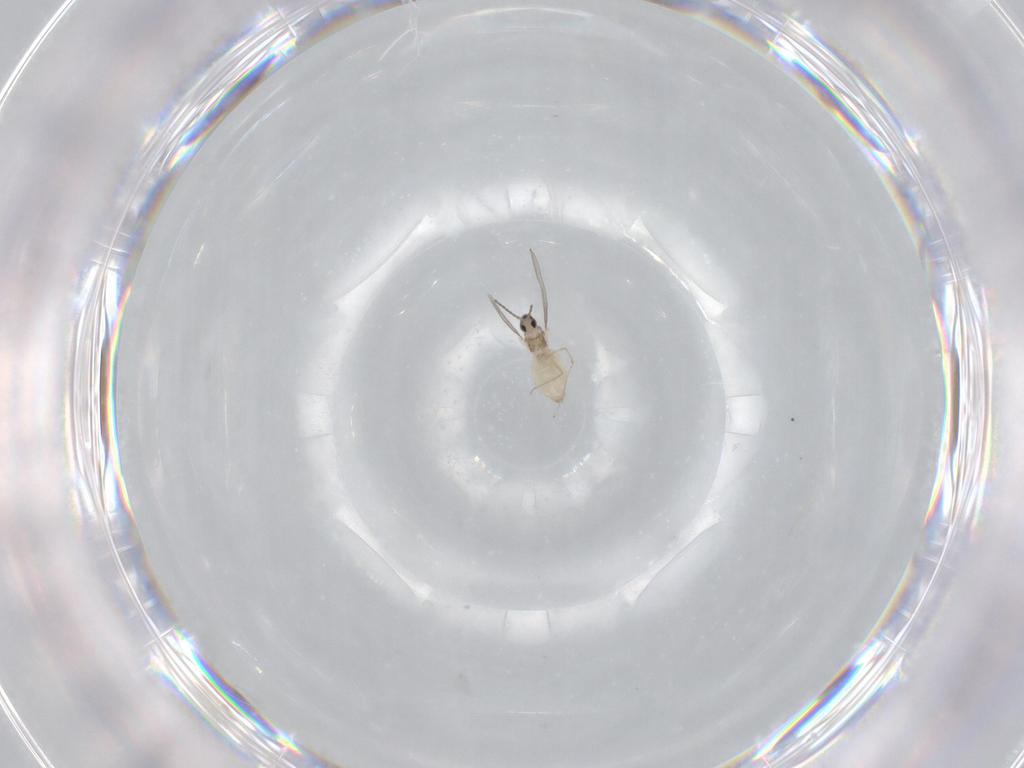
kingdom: Animalia
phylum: Arthropoda
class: Insecta
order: Diptera
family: Cecidomyiidae
